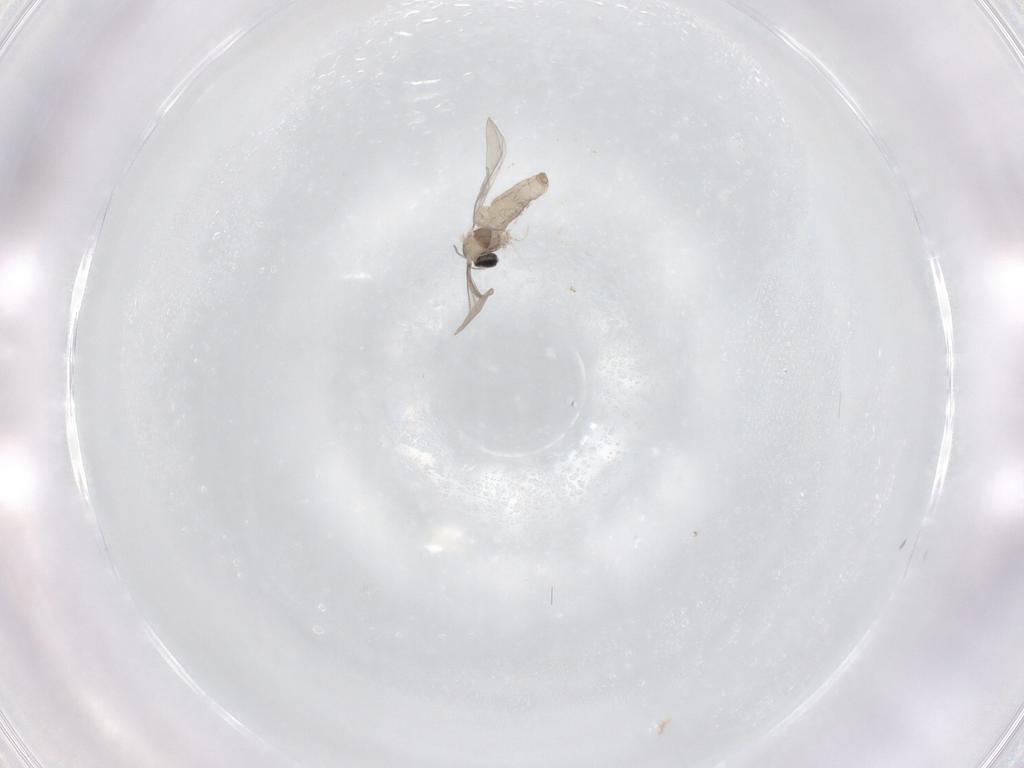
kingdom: Animalia
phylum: Arthropoda
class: Insecta
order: Diptera
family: Cecidomyiidae
